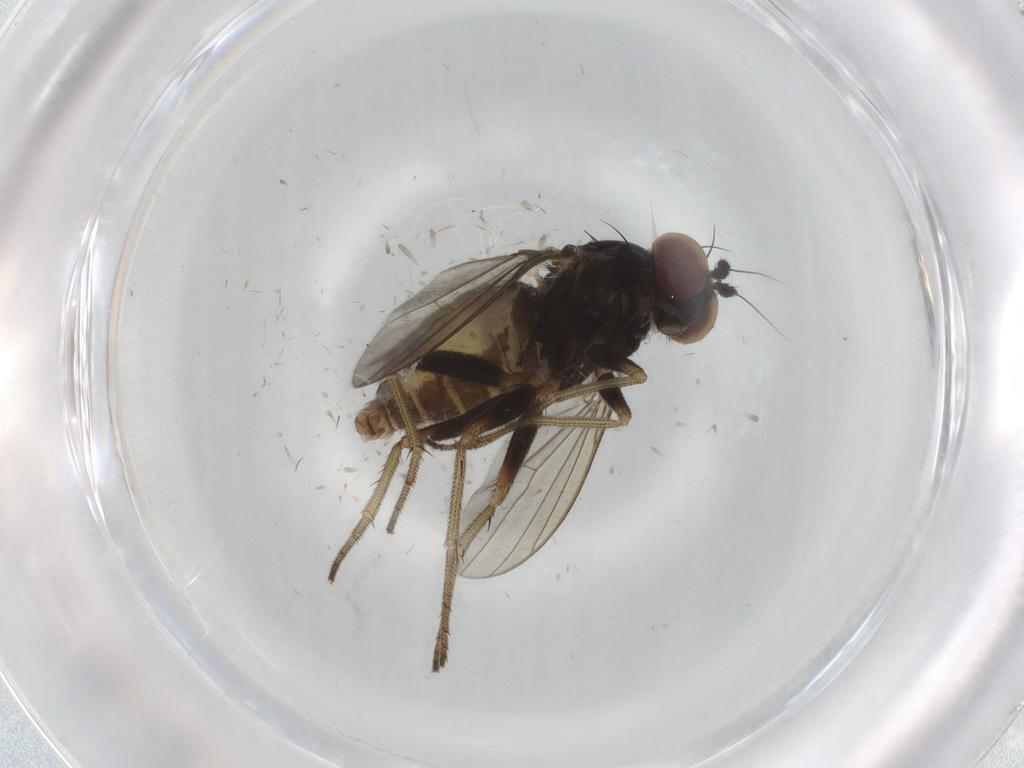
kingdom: Animalia
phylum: Arthropoda
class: Insecta
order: Diptera
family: Dolichopodidae
